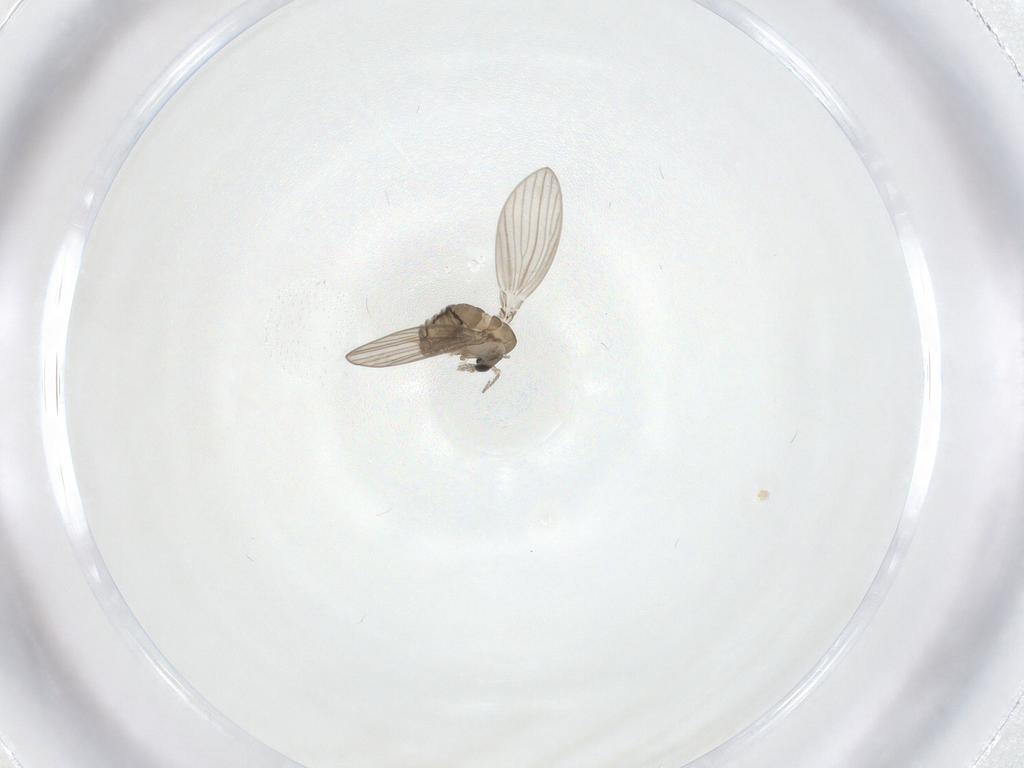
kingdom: Animalia
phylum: Arthropoda
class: Insecta
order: Diptera
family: Psychodidae
